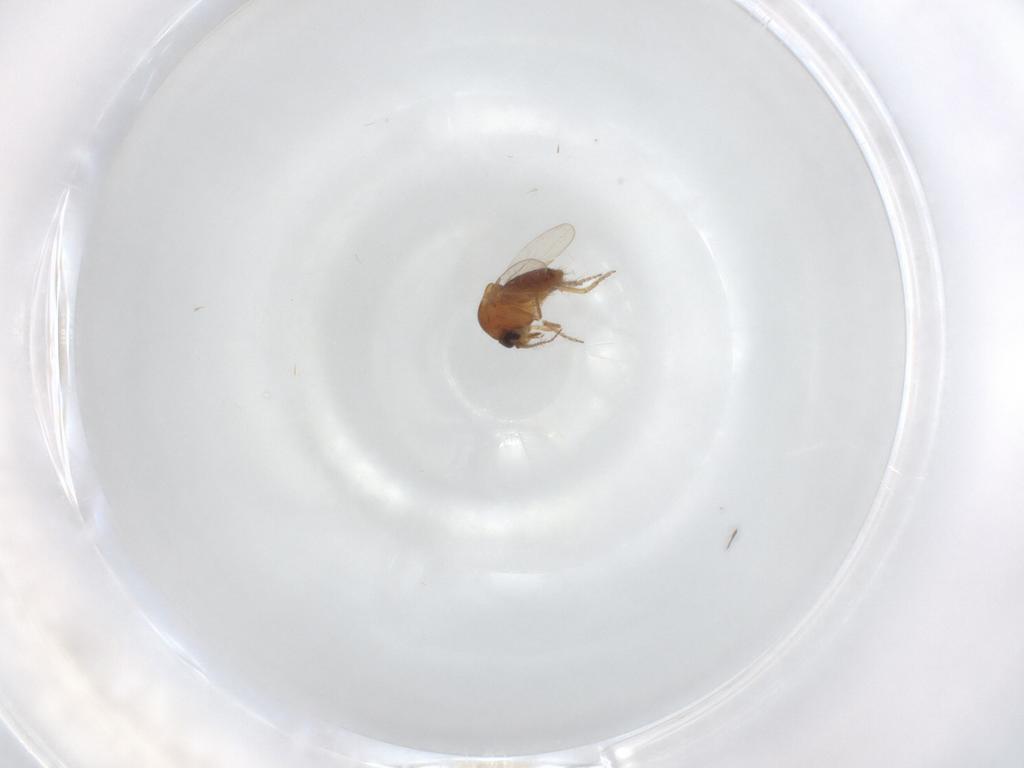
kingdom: Animalia
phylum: Arthropoda
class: Insecta
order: Diptera
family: Ceratopogonidae
